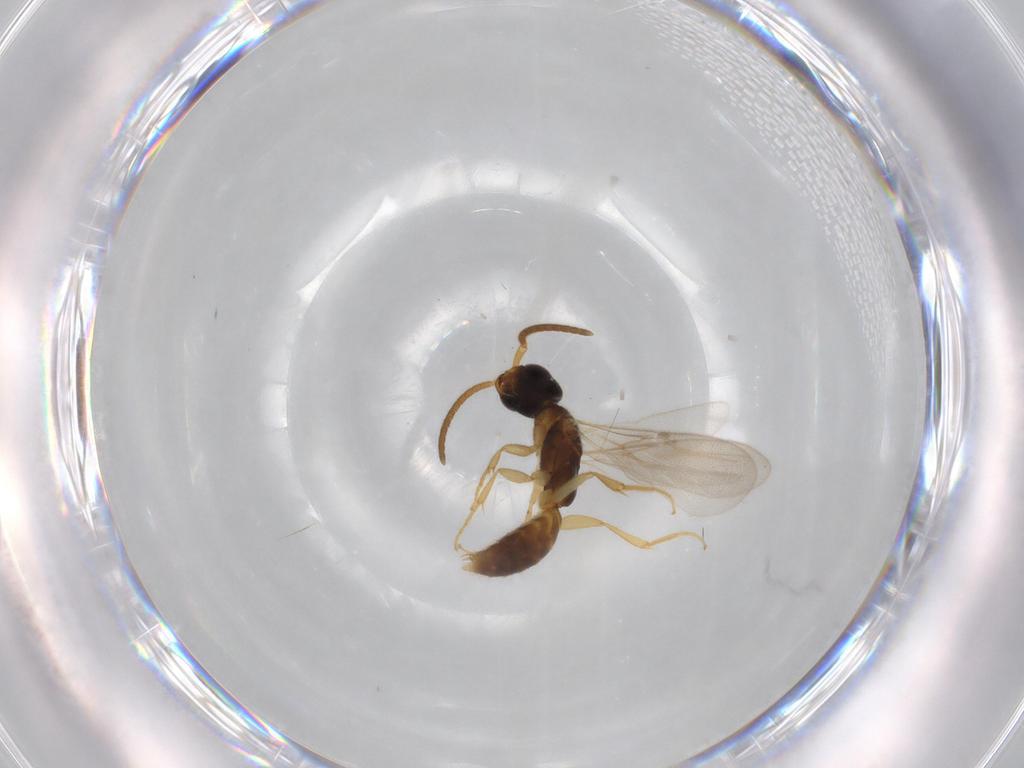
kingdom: Animalia
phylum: Arthropoda
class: Insecta
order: Hymenoptera
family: Bethylidae
